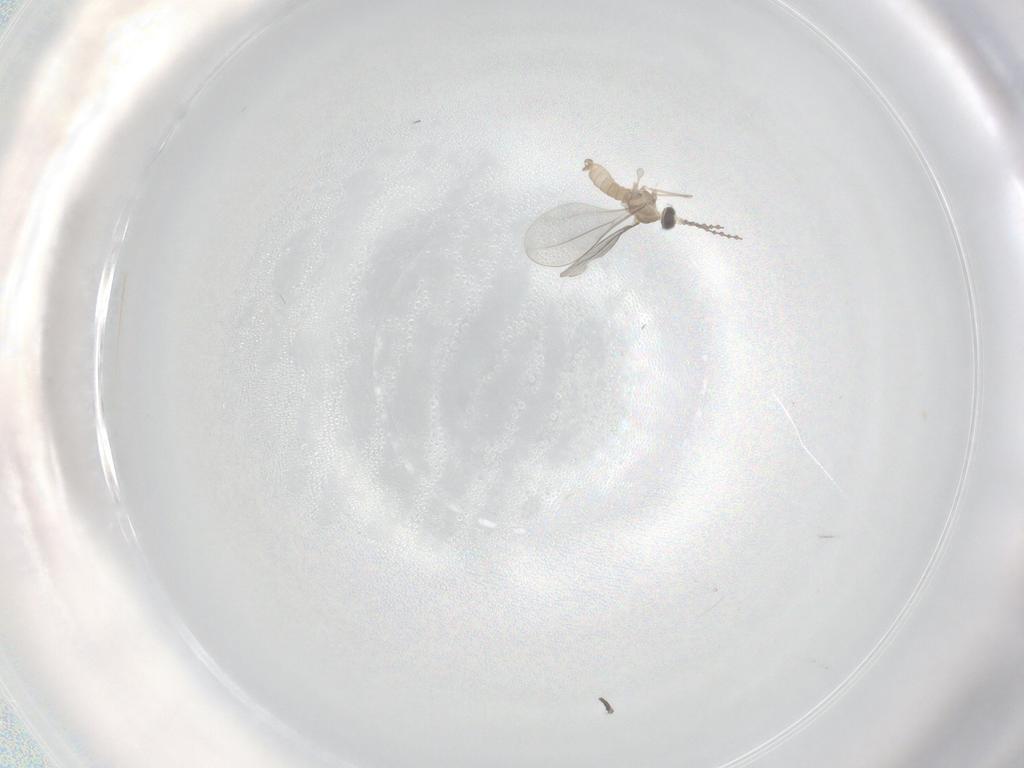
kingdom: Animalia
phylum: Arthropoda
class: Insecta
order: Diptera
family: Cecidomyiidae
